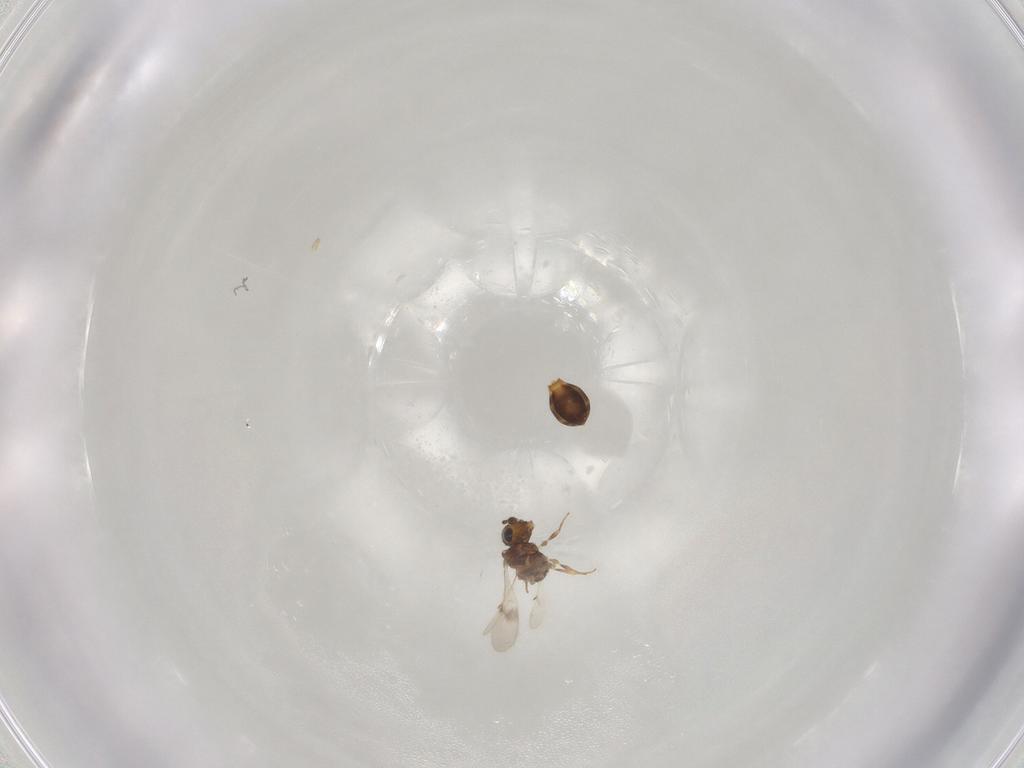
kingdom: Animalia
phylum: Arthropoda
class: Insecta
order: Hymenoptera
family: Scelionidae
